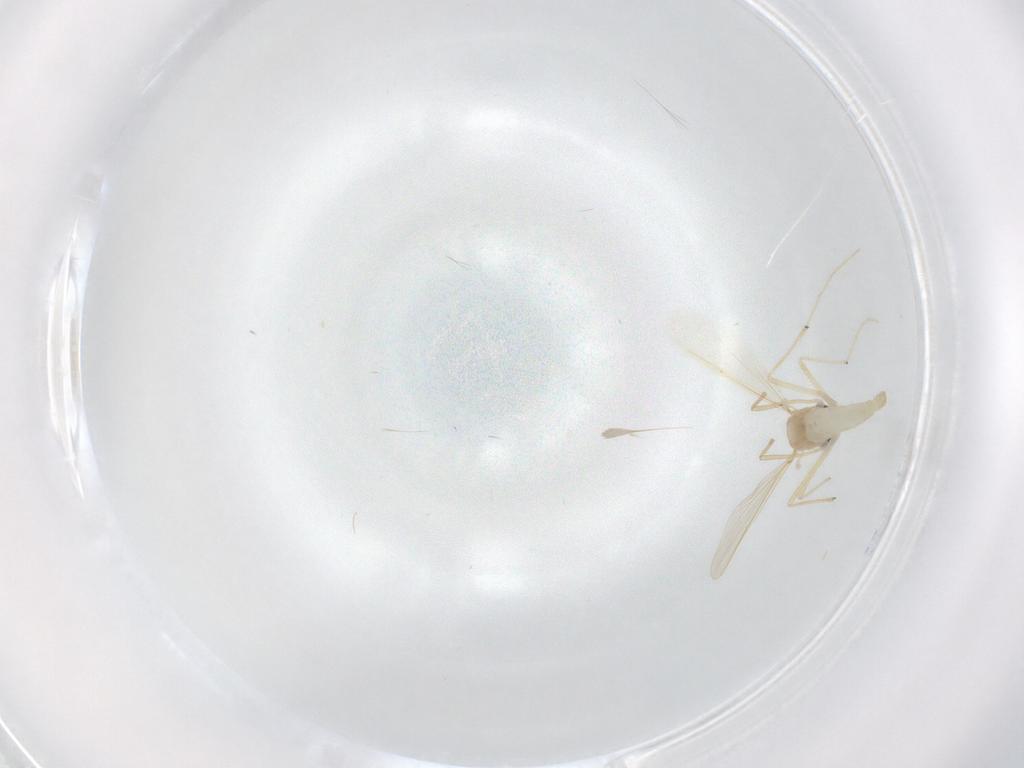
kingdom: Animalia
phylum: Arthropoda
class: Insecta
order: Diptera
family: Chironomidae
